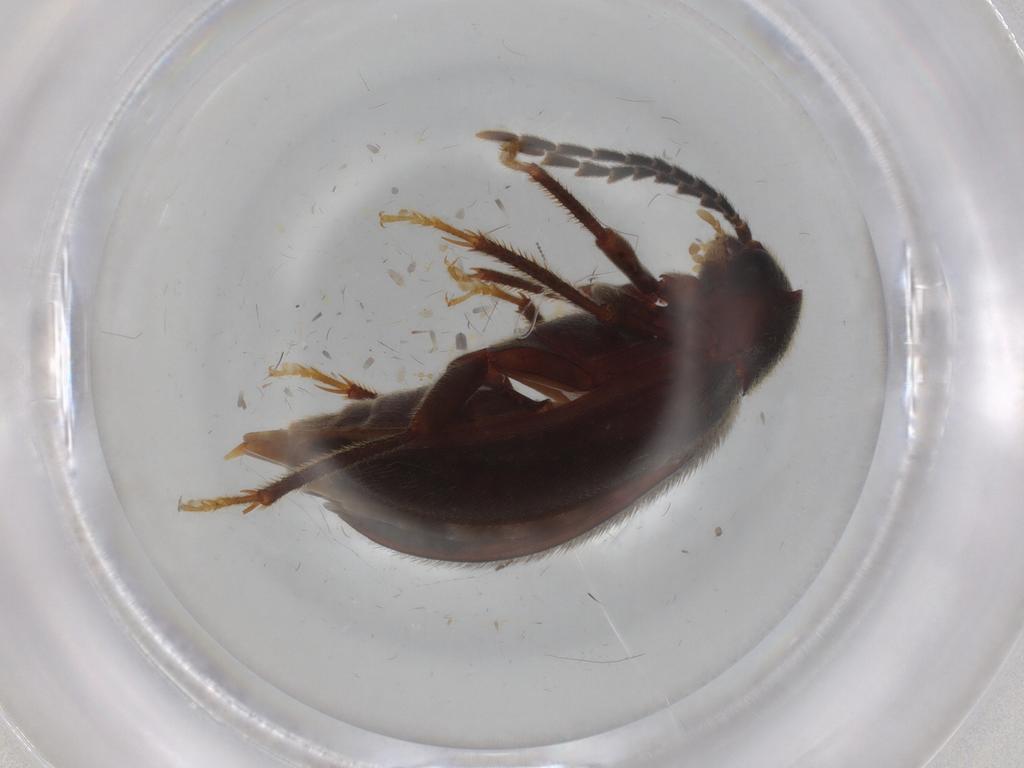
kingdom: Animalia
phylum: Arthropoda
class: Insecta
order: Coleoptera
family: Ptilodactylidae
